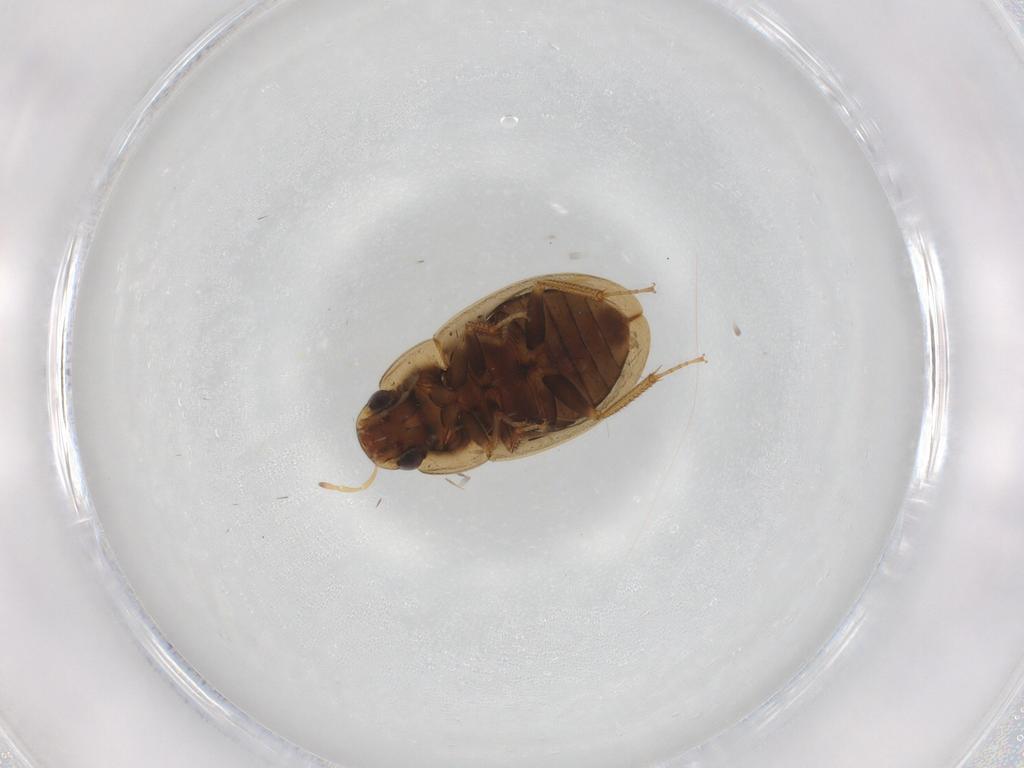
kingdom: Animalia
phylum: Arthropoda
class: Insecta
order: Coleoptera
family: Hydrophilidae
